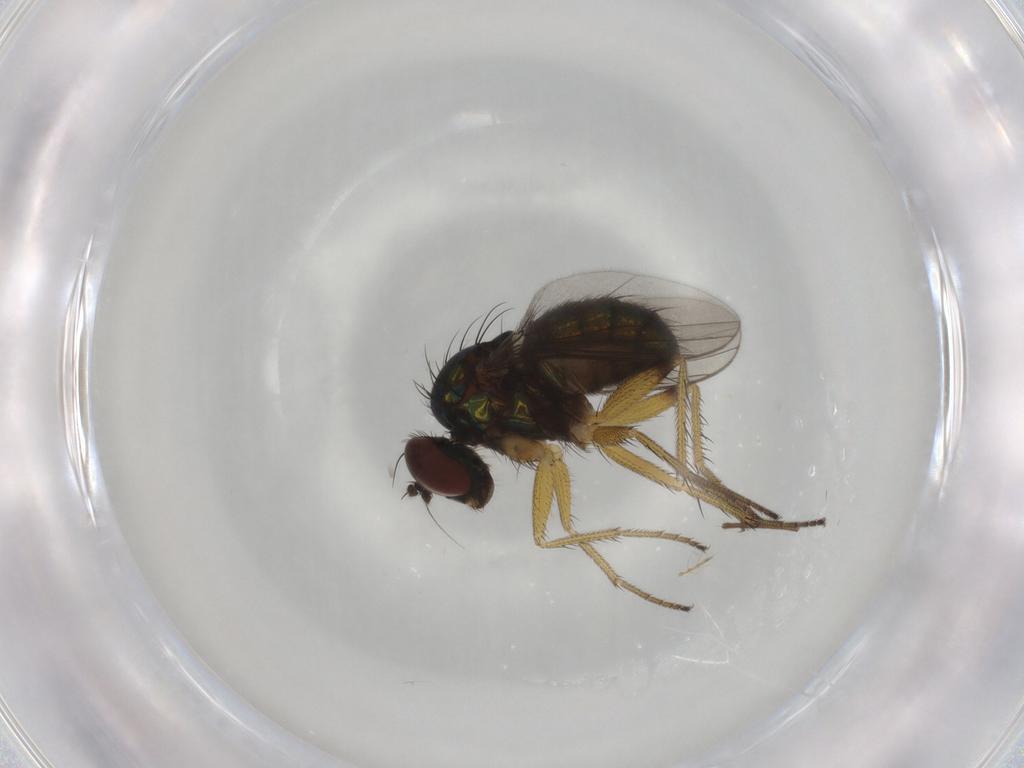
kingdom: Animalia
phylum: Arthropoda
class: Insecta
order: Diptera
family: Dolichopodidae
